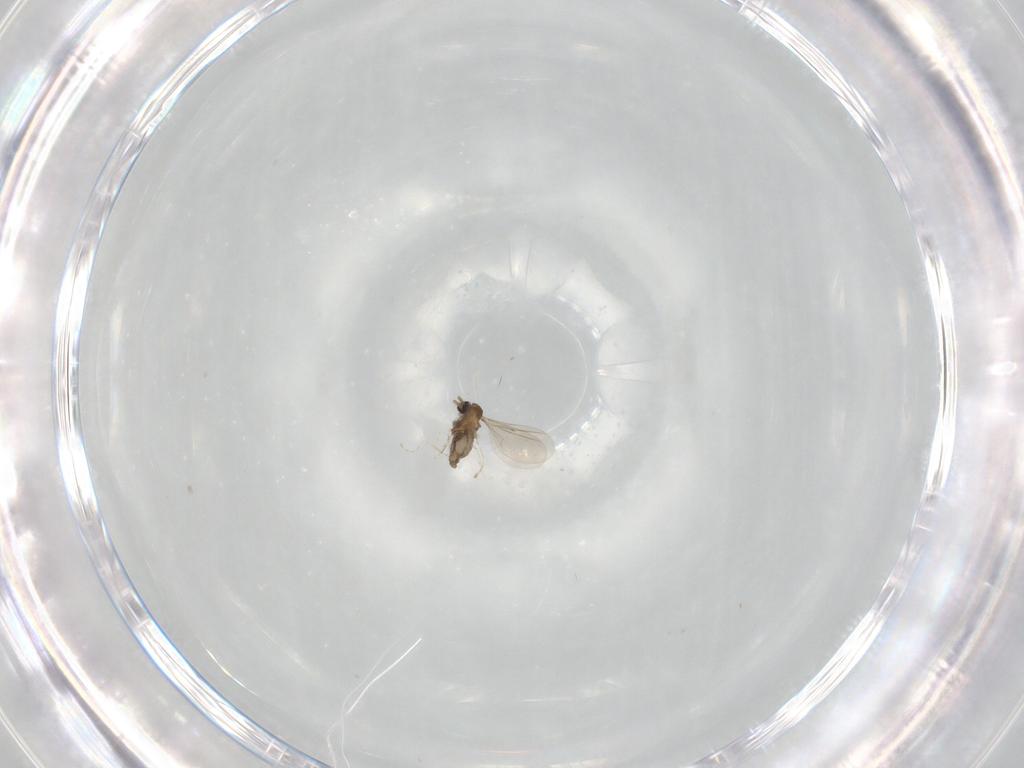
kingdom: Animalia
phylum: Arthropoda
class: Insecta
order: Diptera
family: Cecidomyiidae
